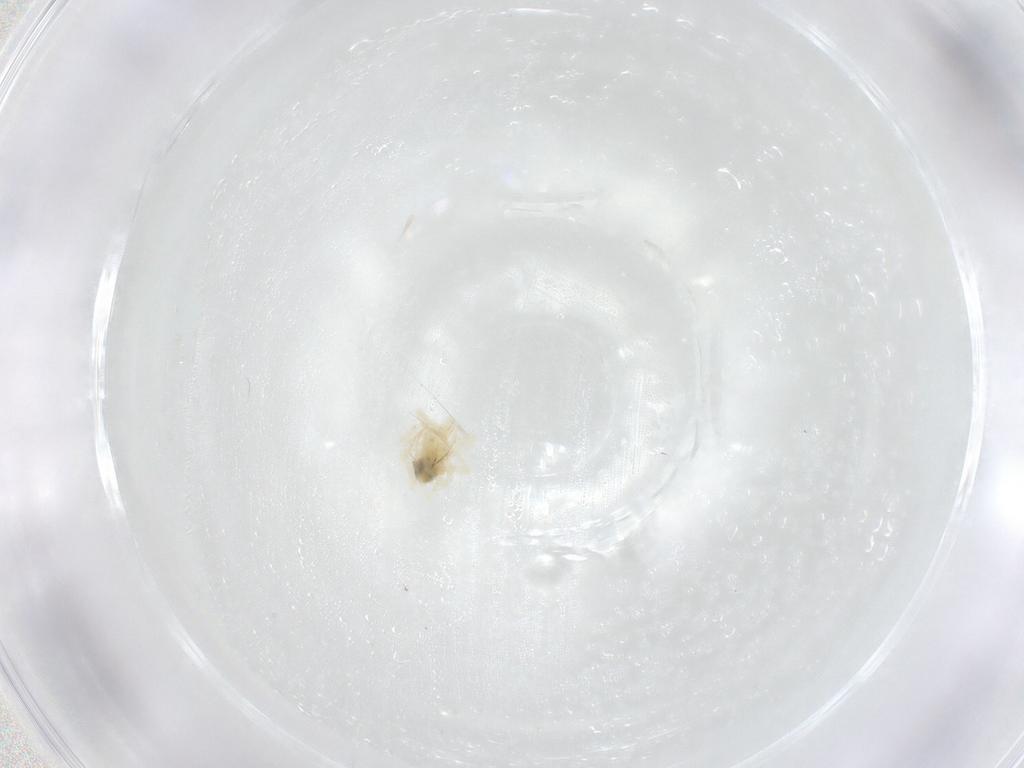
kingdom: Animalia
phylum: Arthropoda
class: Arachnida
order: Trombidiformes
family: Anystidae
